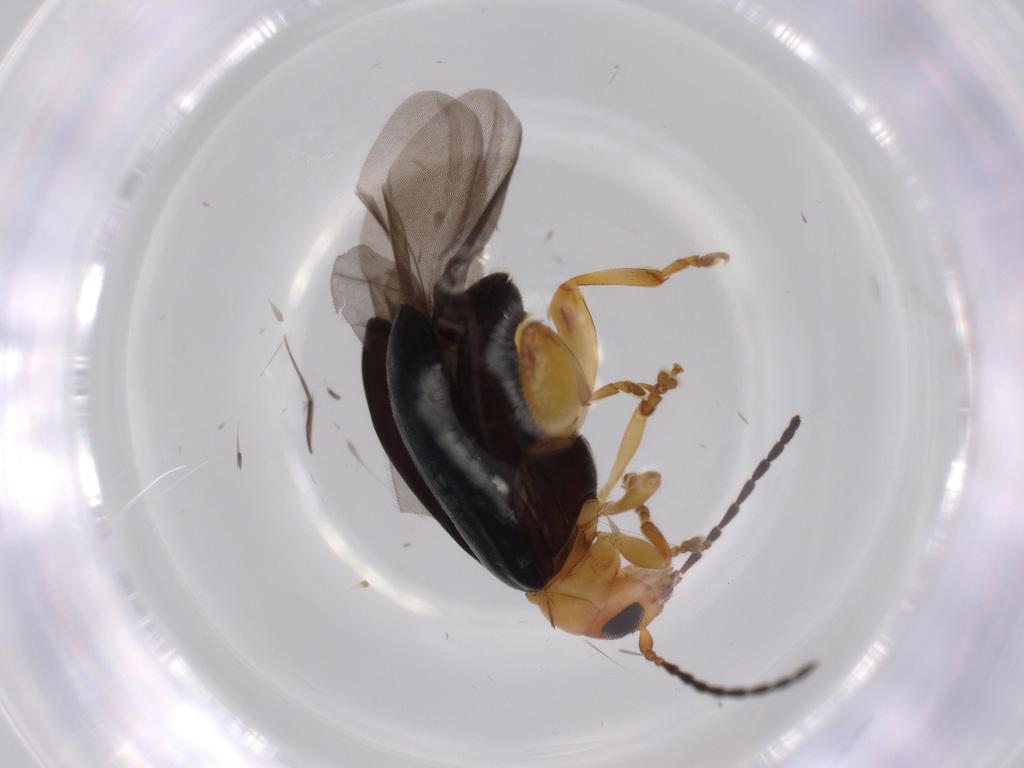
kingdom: Animalia
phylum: Arthropoda
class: Insecta
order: Coleoptera
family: Chrysomelidae
